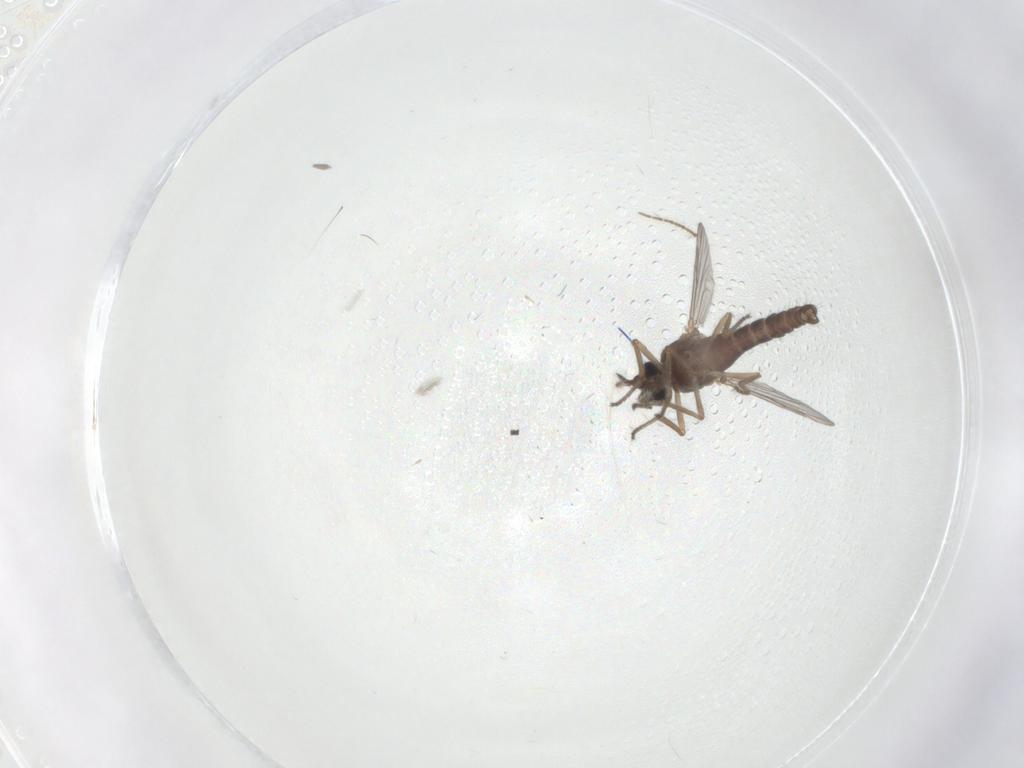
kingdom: Animalia
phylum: Arthropoda
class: Insecta
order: Diptera
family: Ceratopogonidae
